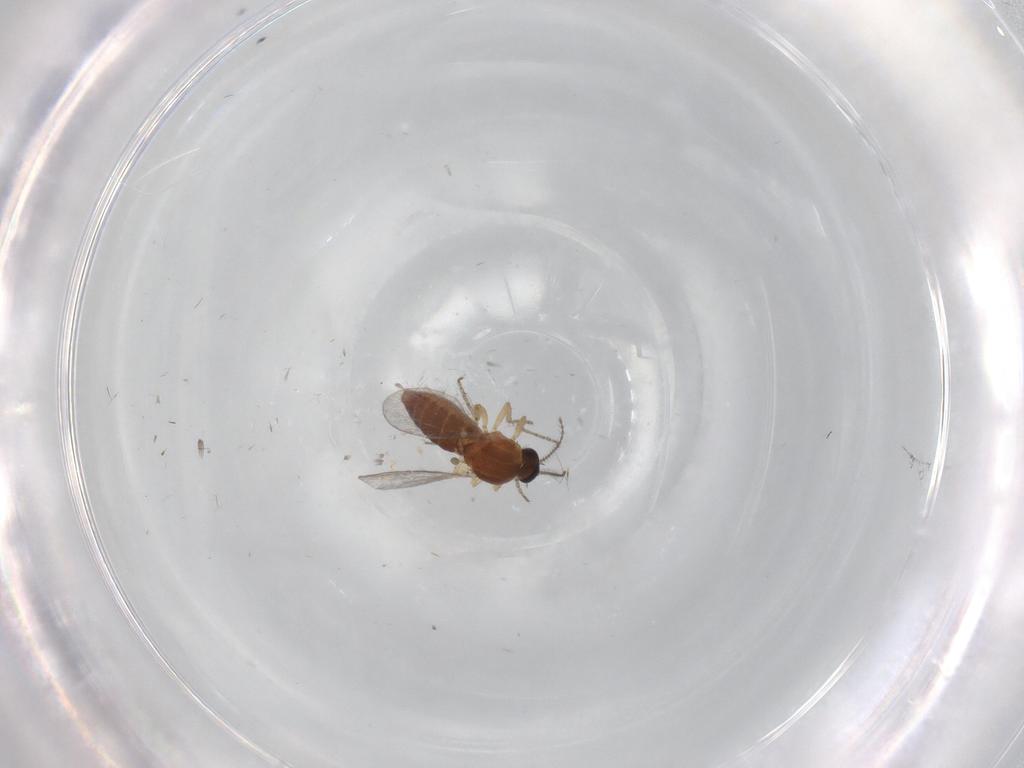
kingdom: Animalia
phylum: Arthropoda
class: Insecta
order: Diptera
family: Ceratopogonidae
